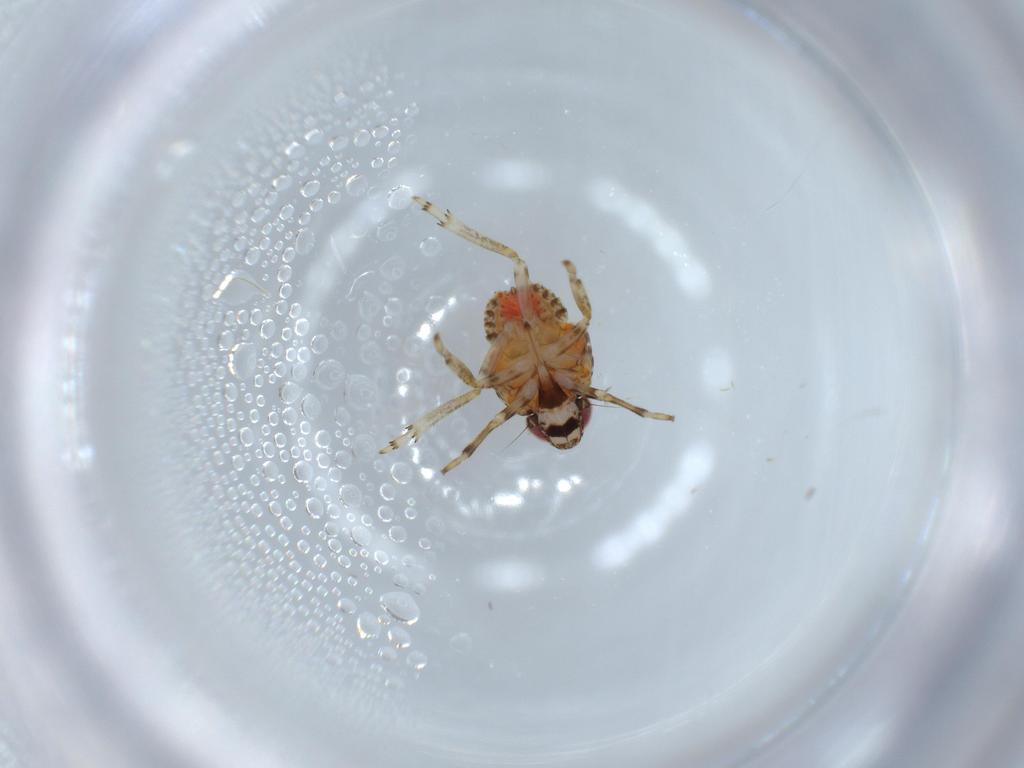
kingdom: Animalia
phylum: Arthropoda
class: Insecta
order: Hemiptera
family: Issidae
